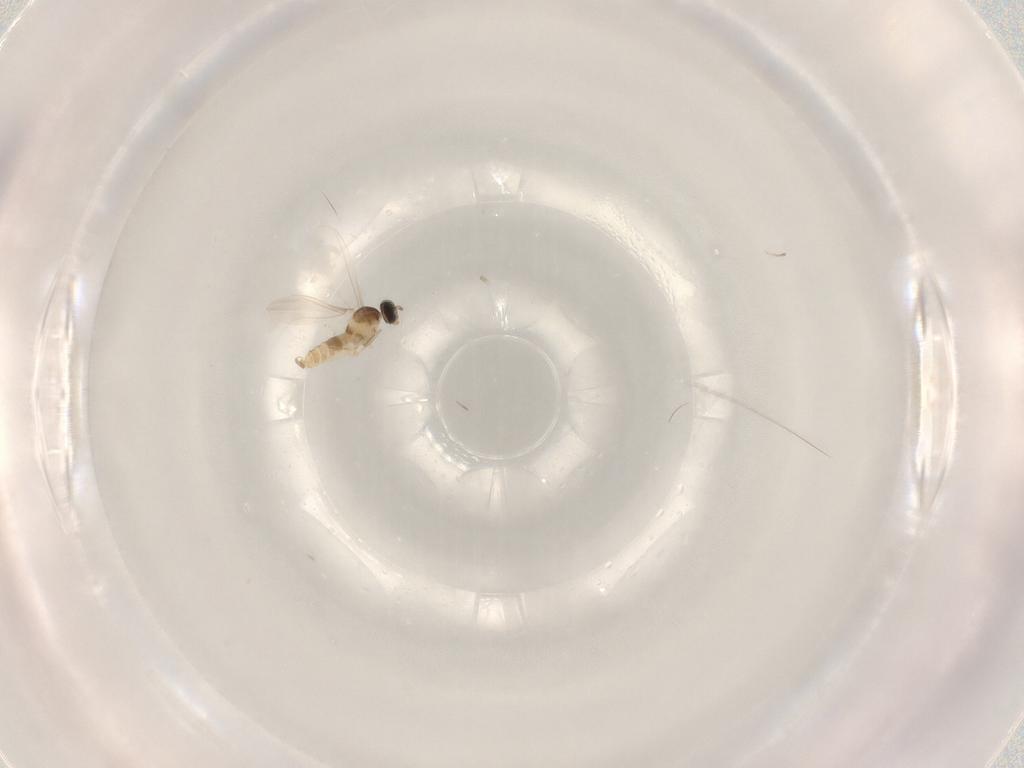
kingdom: Animalia
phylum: Arthropoda
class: Insecta
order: Diptera
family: Cecidomyiidae
